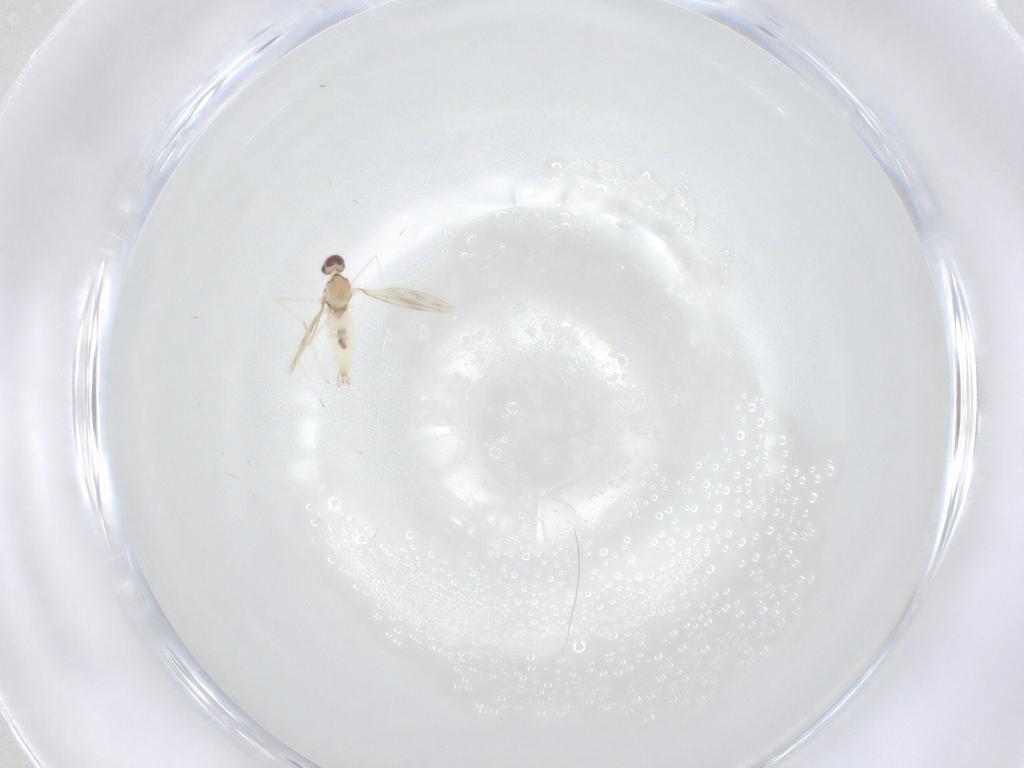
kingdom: Animalia
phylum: Arthropoda
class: Insecta
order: Diptera
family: Cecidomyiidae
